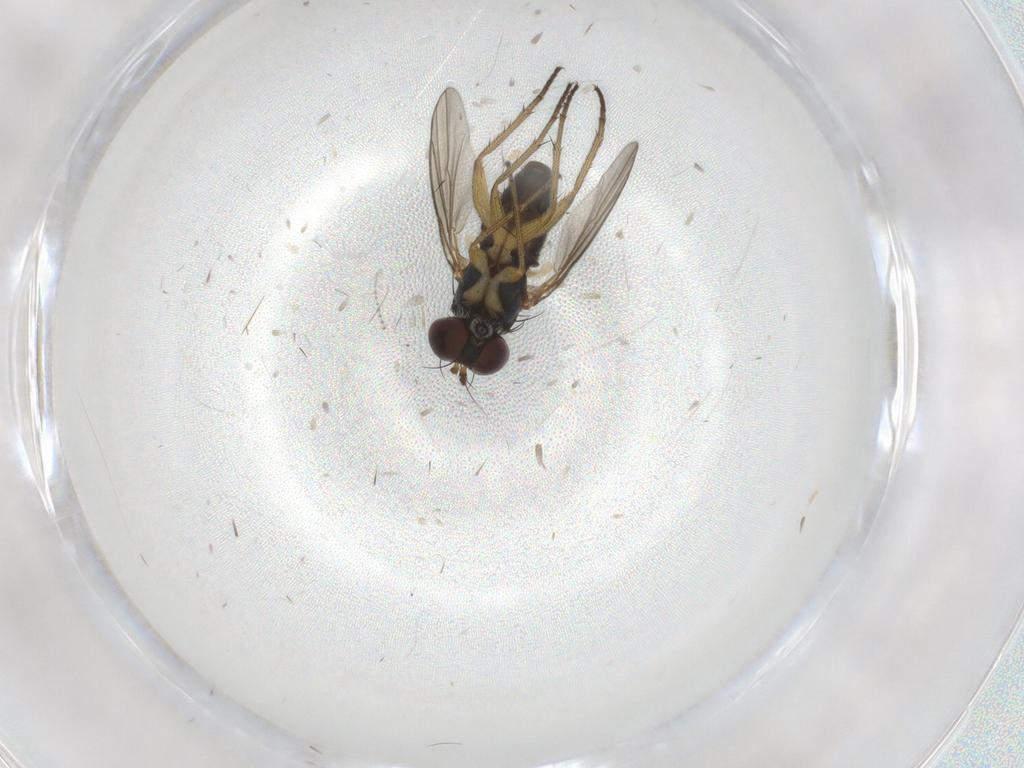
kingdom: Animalia
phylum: Arthropoda
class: Insecta
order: Diptera
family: Dolichopodidae
